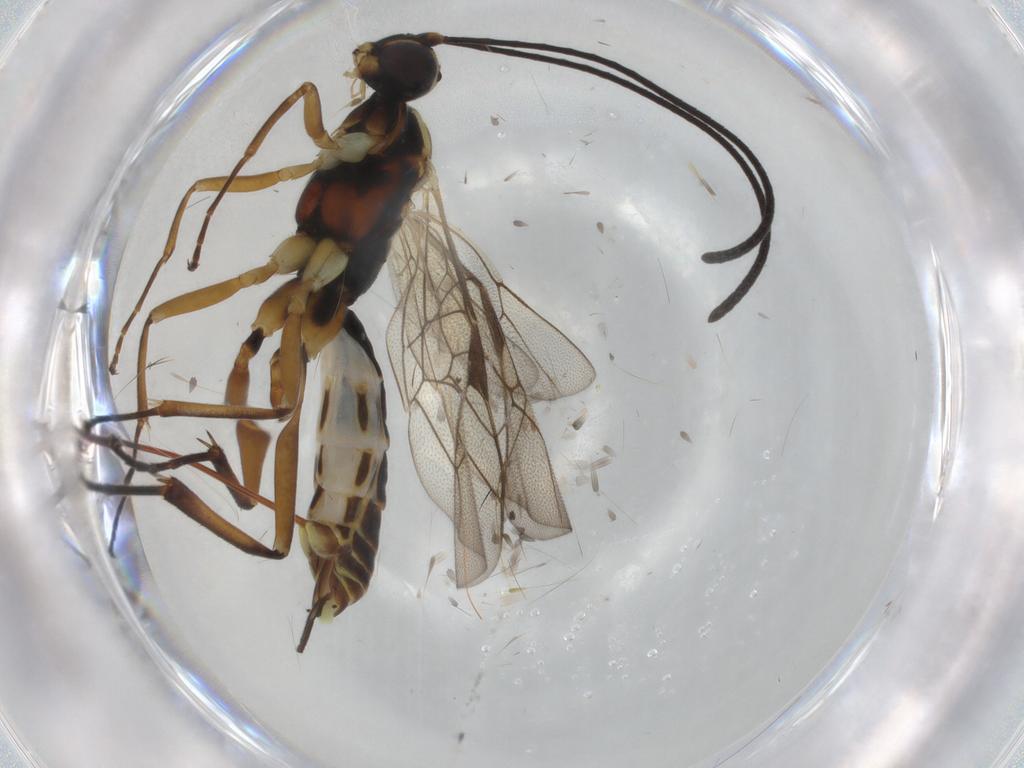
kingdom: Animalia
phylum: Arthropoda
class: Insecta
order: Hymenoptera
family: Ichneumonidae
